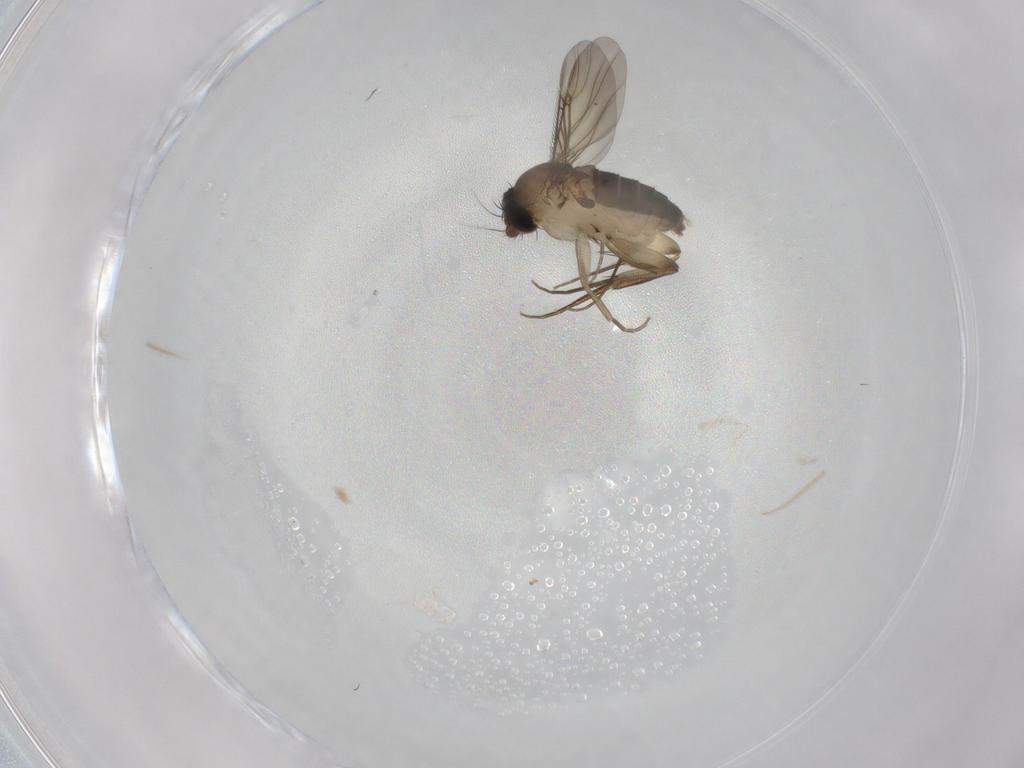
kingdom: Animalia
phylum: Arthropoda
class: Insecta
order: Diptera
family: Phoridae
